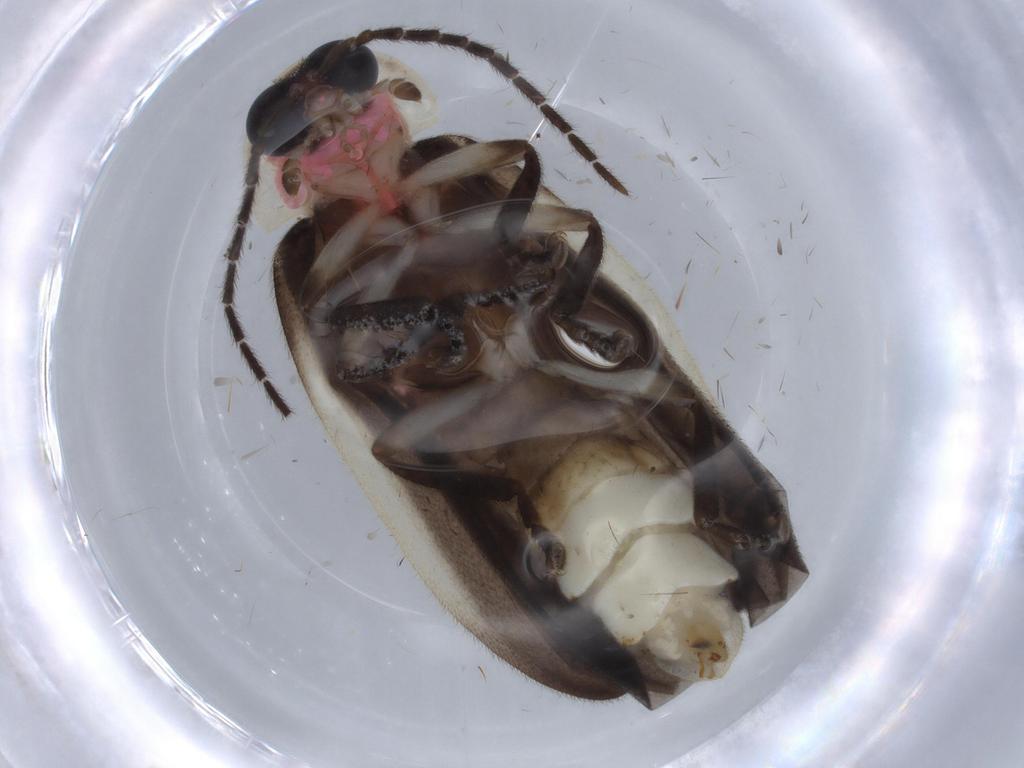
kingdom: Animalia
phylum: Arthropoda
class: Insecta
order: Coleoptera
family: Lampyridae
